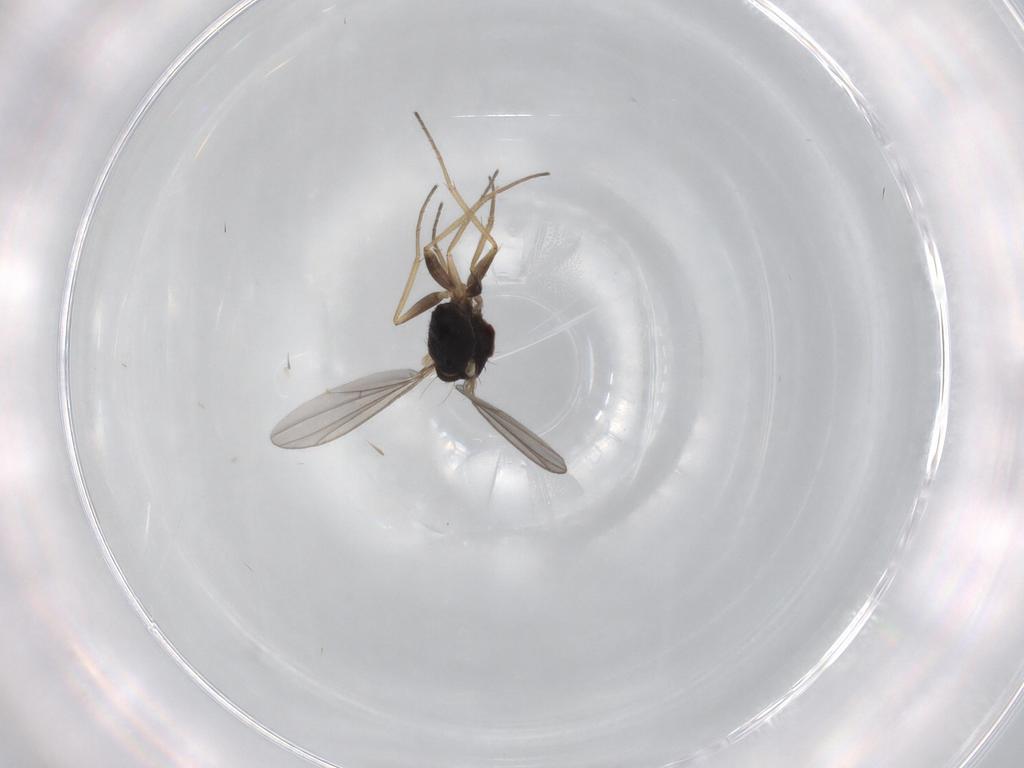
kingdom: Animalia
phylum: Arthropoda
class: Insecta
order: Diptera
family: Dolichopodidae
